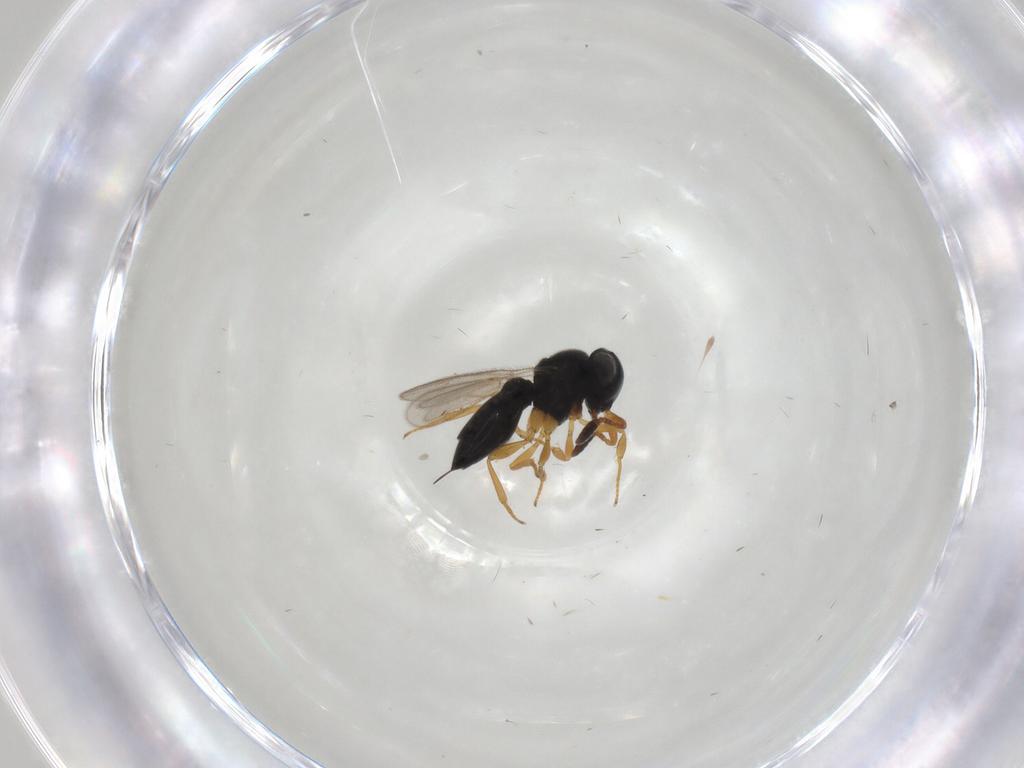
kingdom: Animalia
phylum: Arthropoda
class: Insecta
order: Hymenoptera
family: Scelionidae
